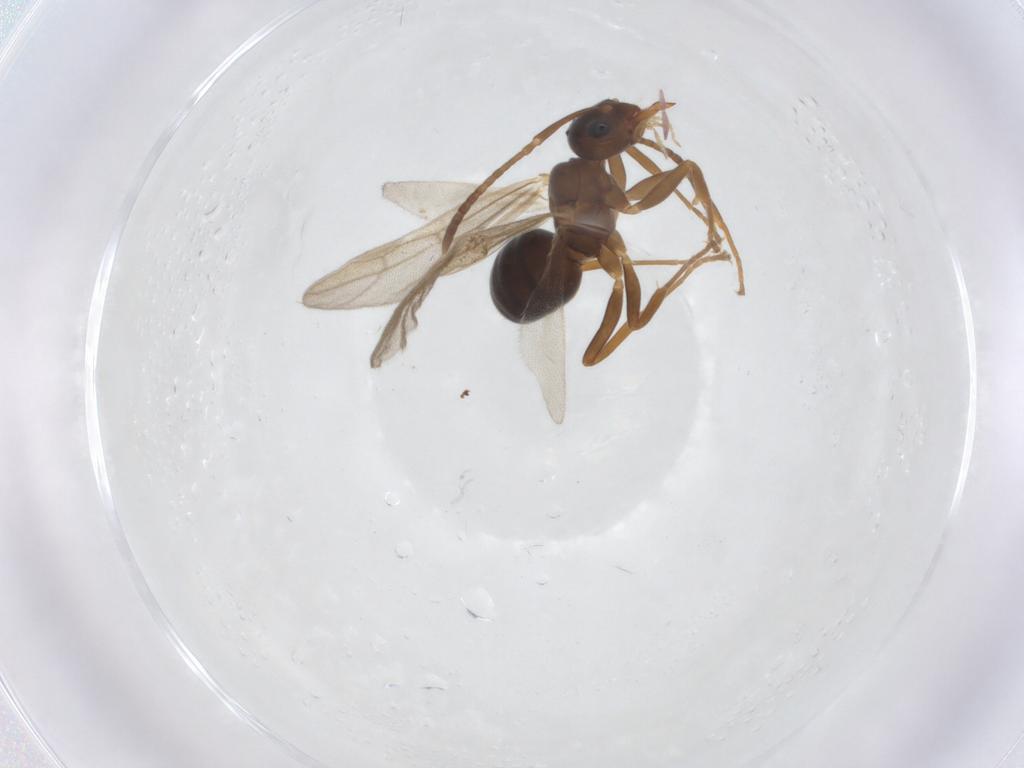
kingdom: Animalia
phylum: Arthropoda
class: Insecta
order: Hymenoptera
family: Formicidae
